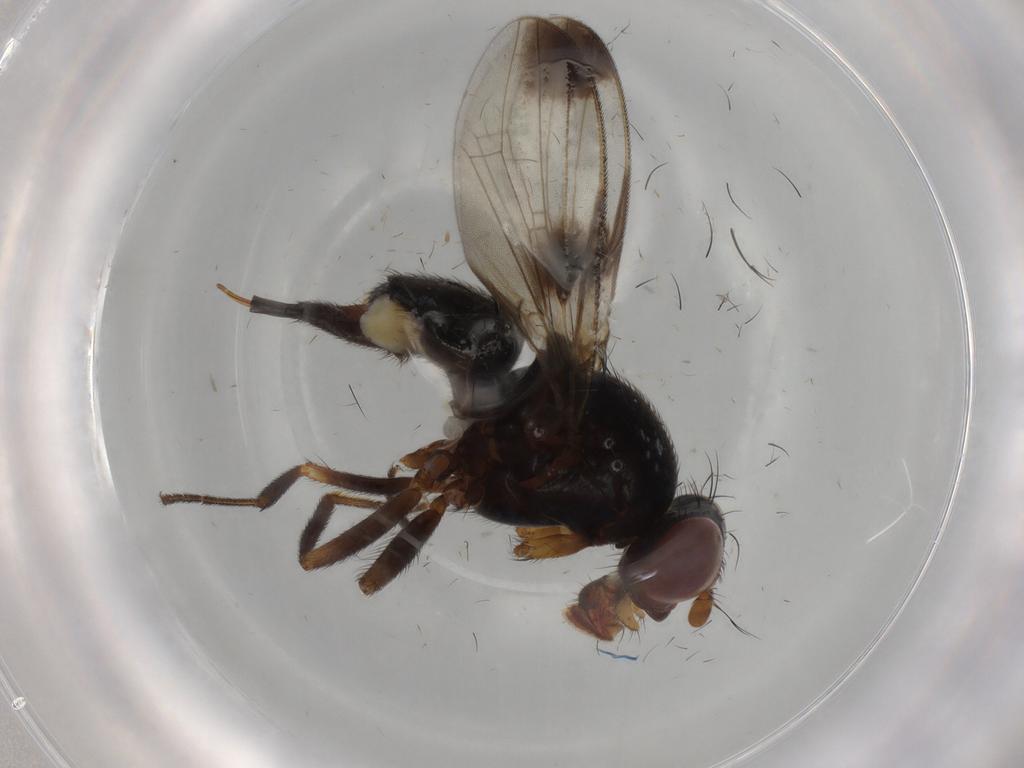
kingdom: Animalia
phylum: Arthropoda
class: Insecta
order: Diptera
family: Ulidiidae
